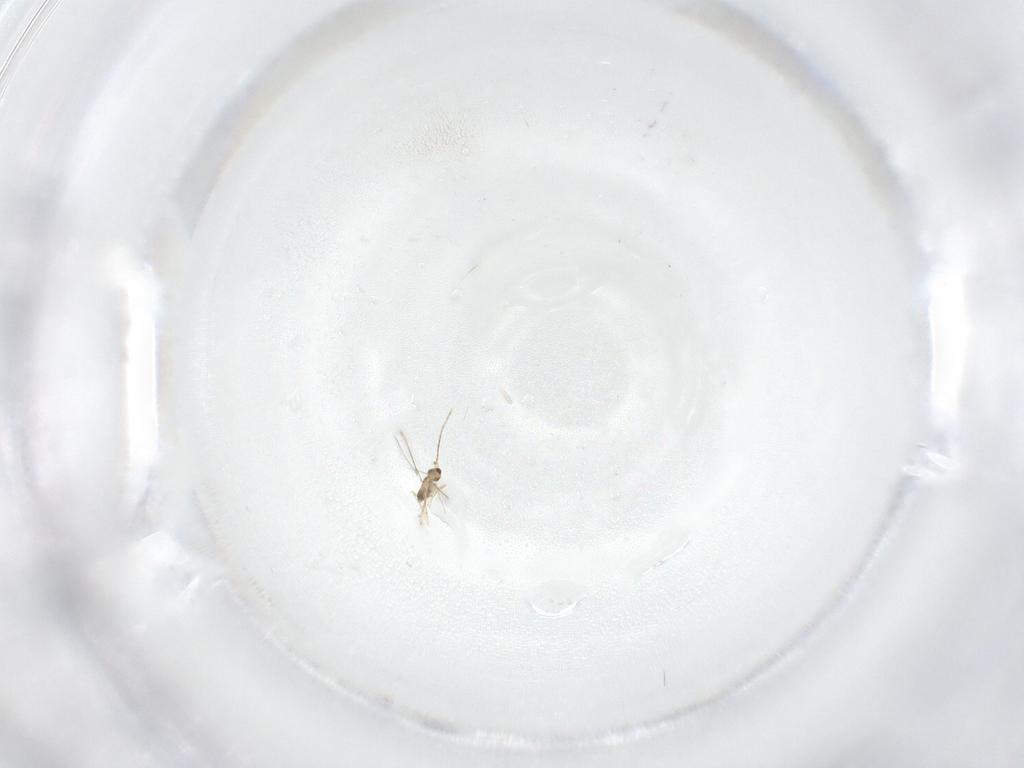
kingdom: Animalia
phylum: Arthropoda
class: Insecta
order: Hymenoptera
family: Mymaridae
